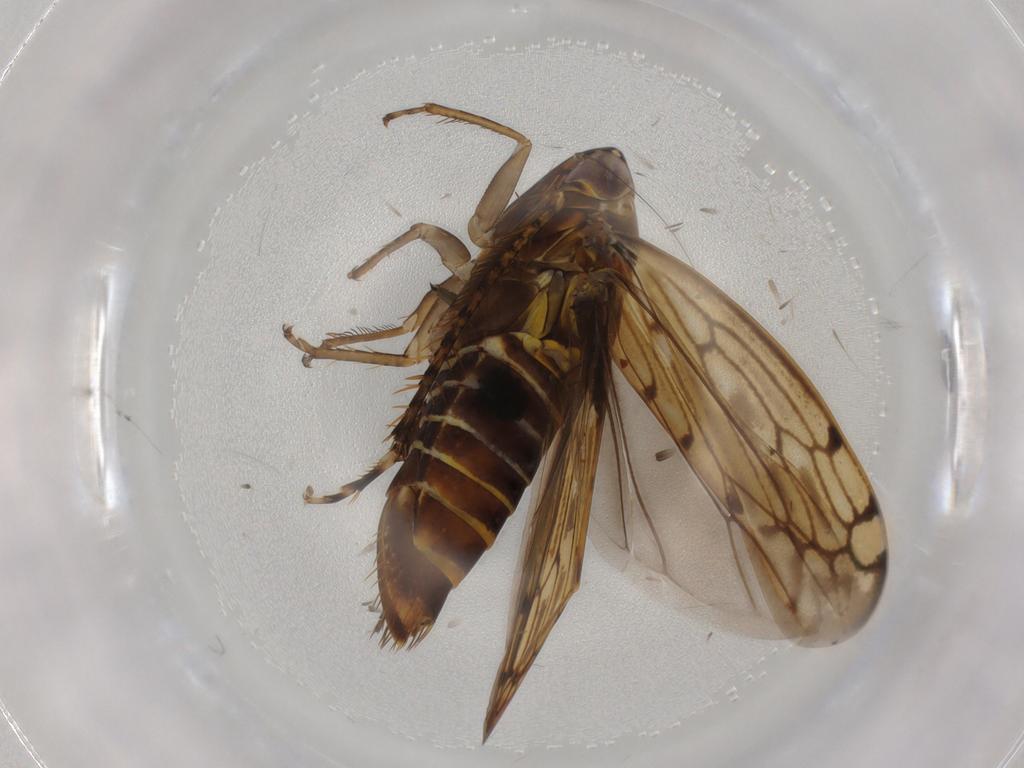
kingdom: Animalia
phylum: Arthropoda
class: Insecta
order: Hemiptera
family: Cicadellidae
